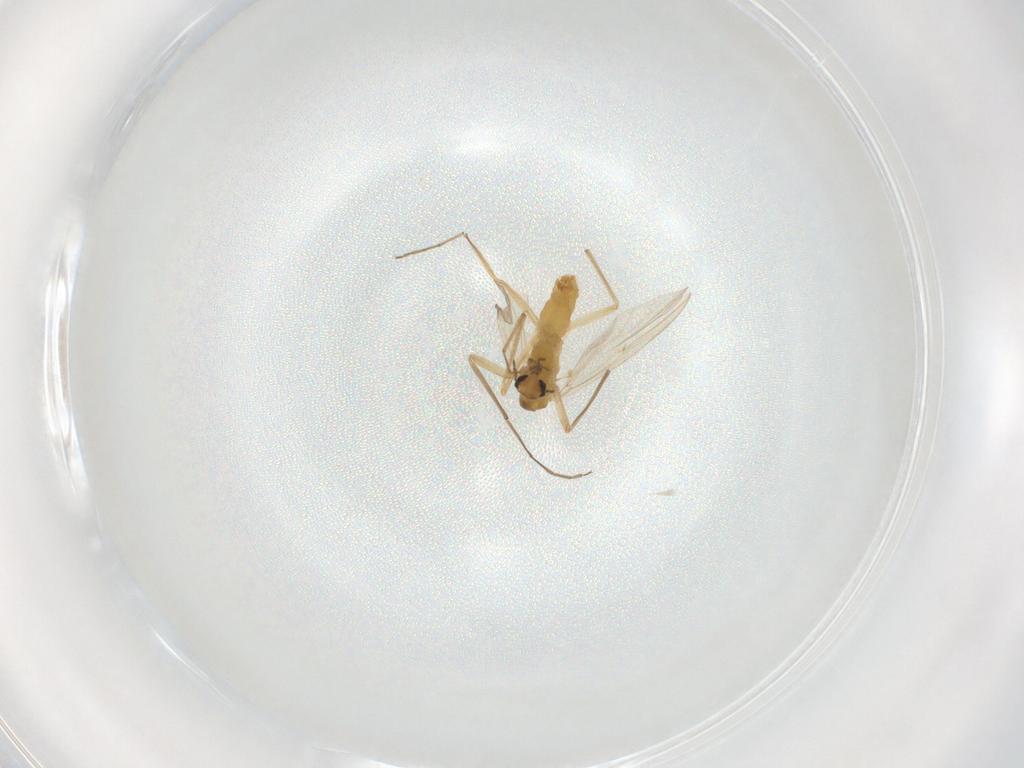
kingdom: Animalia
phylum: Arthropoda
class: Insecta
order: Diptera
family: Chironomidae
